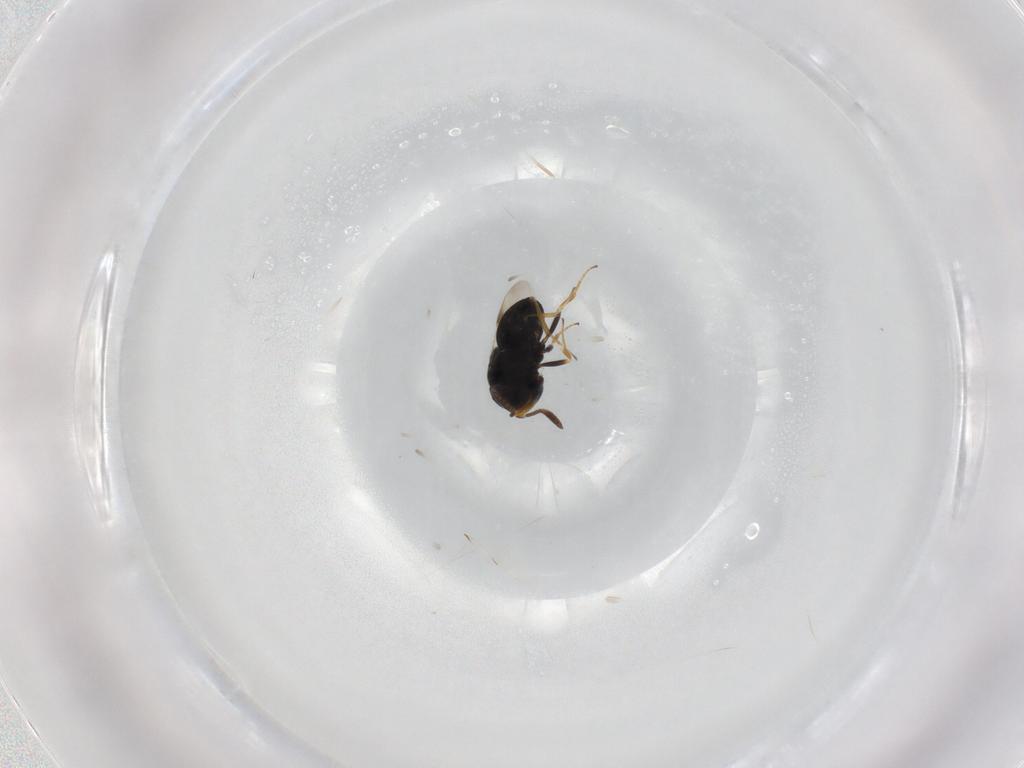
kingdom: Animalia
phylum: Arthropoda
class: Insecta
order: Hymenoptera
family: Scelionidae
